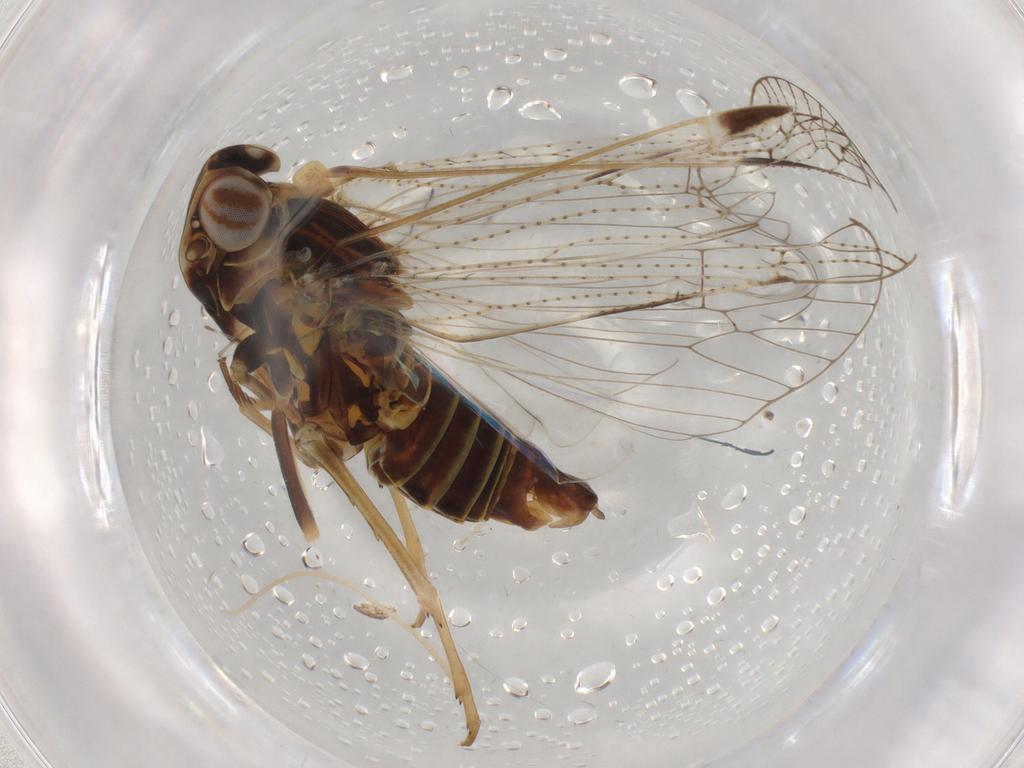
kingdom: Animalia
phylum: Arthropoda
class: Insecta
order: Hemiptera
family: Cixiidae
